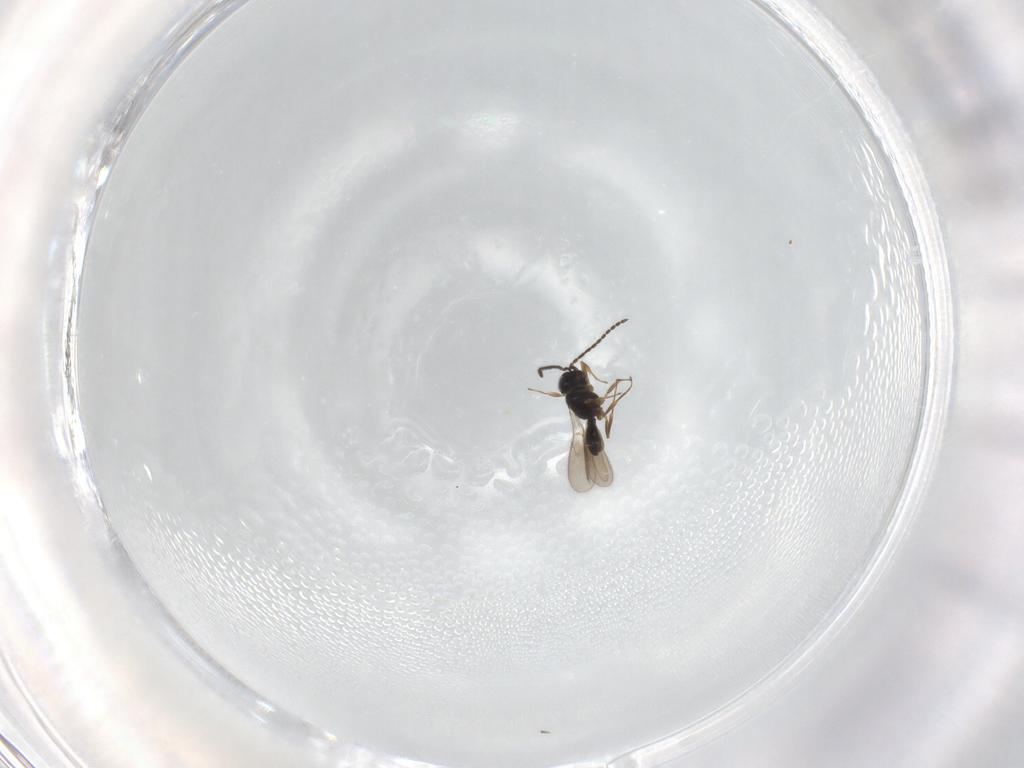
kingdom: Animalia
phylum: Arthropoda
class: Insecta
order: Hymenoptera
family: Scelionidae
